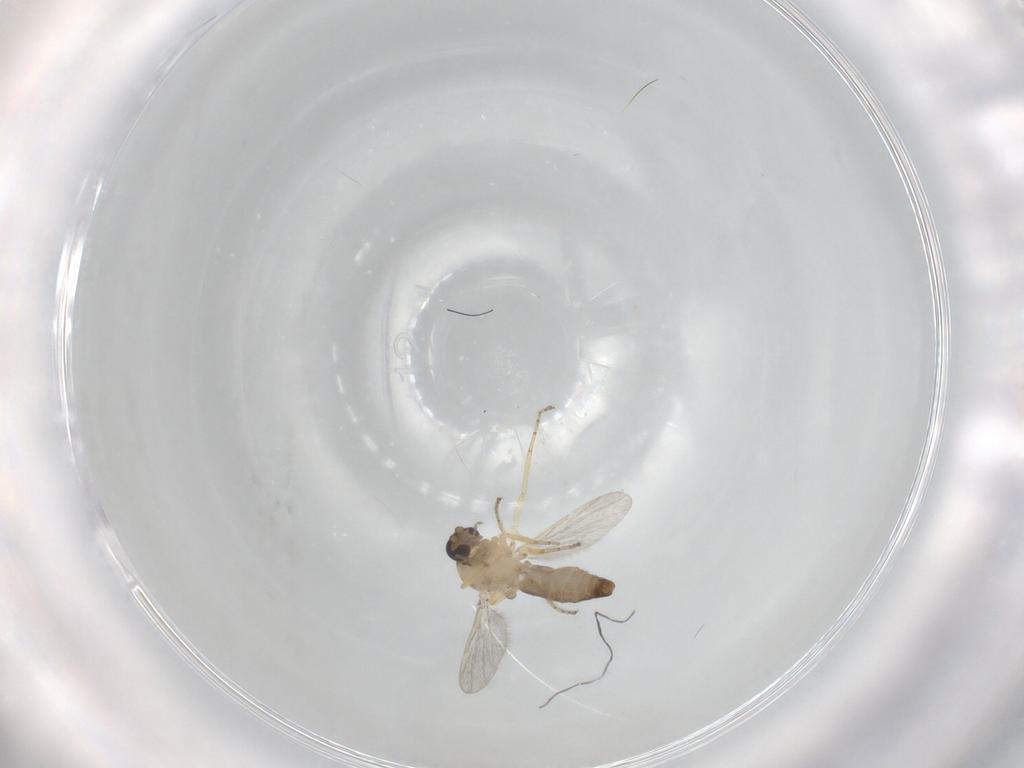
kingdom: Animalia
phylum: Arthropoda
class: Insecta
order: Diptera
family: Ceratopogonidae
